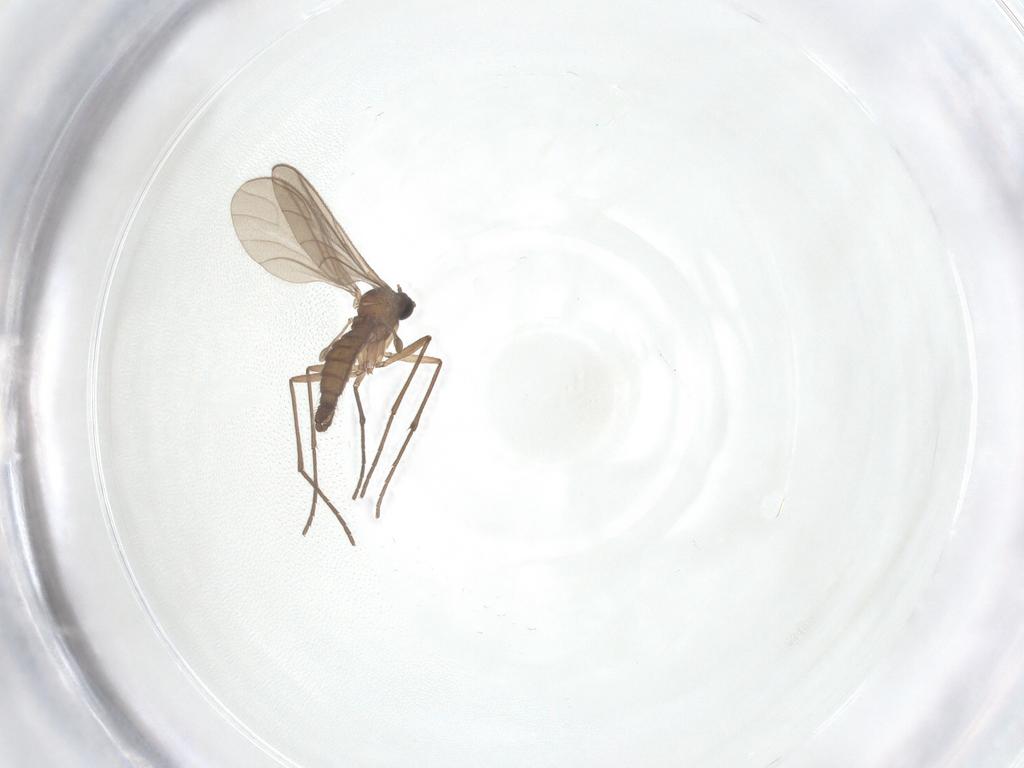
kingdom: Animalia
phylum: Arthropoda
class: Insecta
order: Diptera
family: Sciaridae
